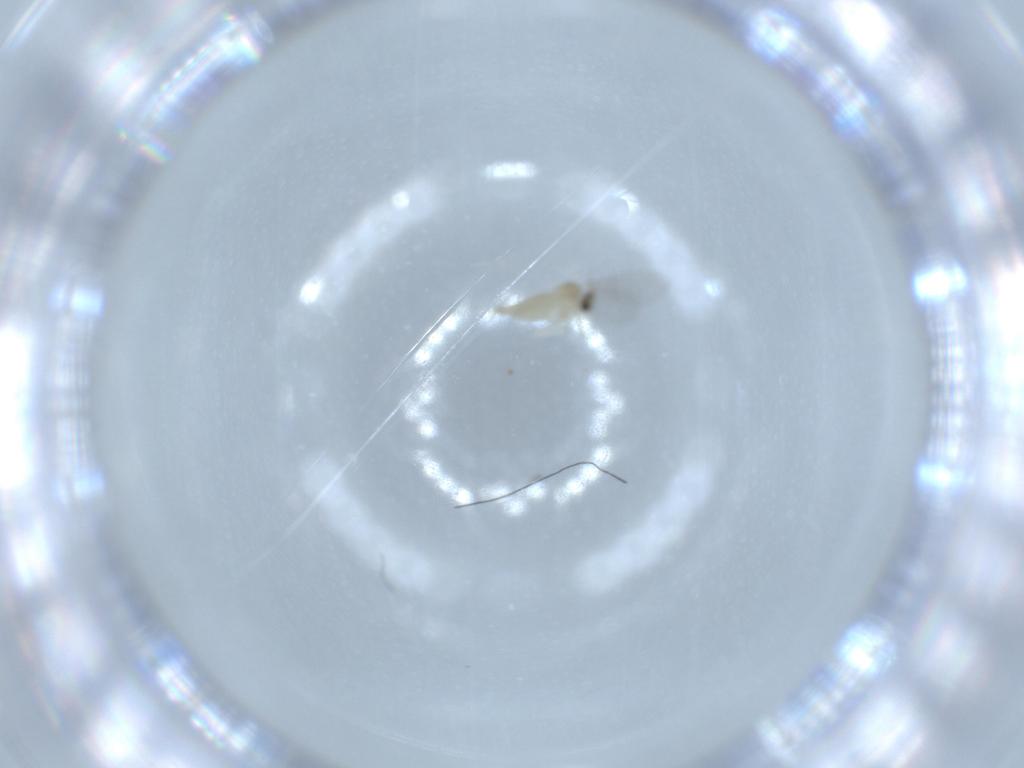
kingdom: Animalia
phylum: Arthropoda
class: Insecta
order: Diptera
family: Cecidomyiidae
